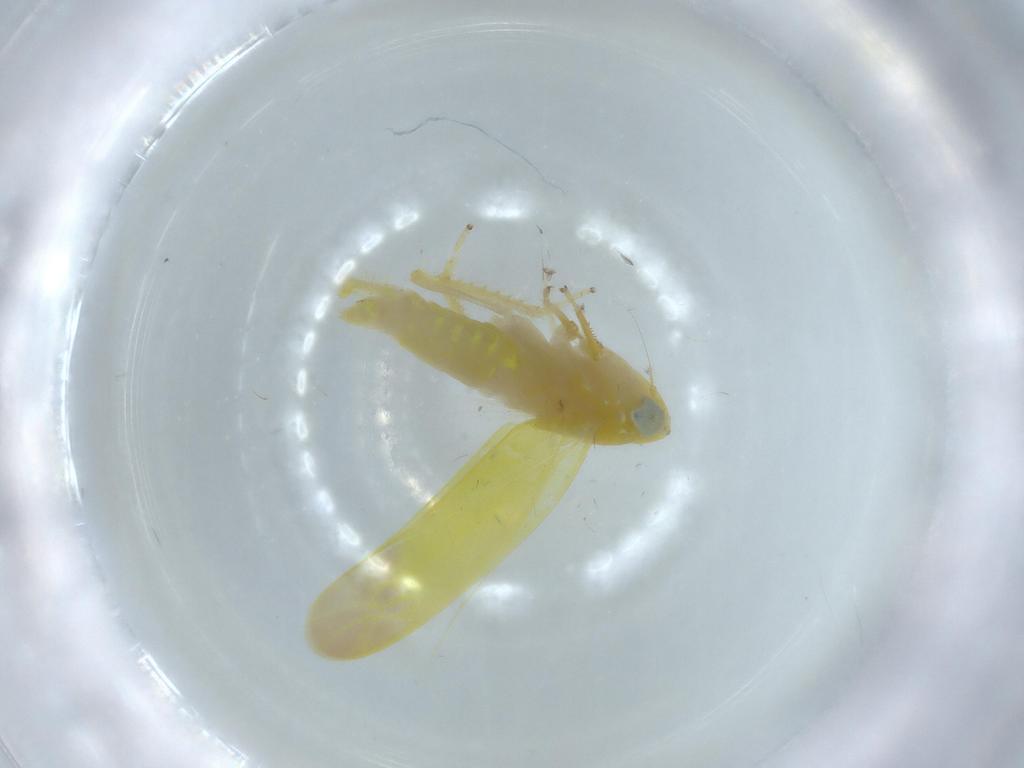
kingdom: Animalia
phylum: Arthropoda
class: Insecta
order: Hemiptera
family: Cicadellidae
